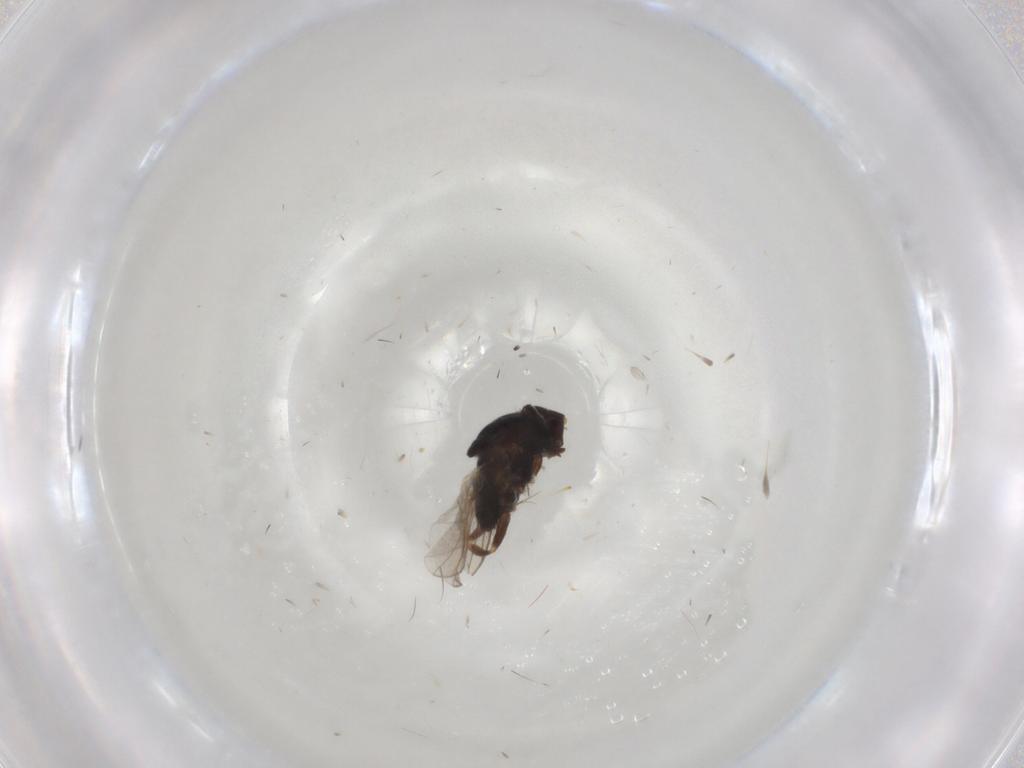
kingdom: Animalia
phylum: Arthropoda
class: Insecta
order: Diptera
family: Chloropidae
